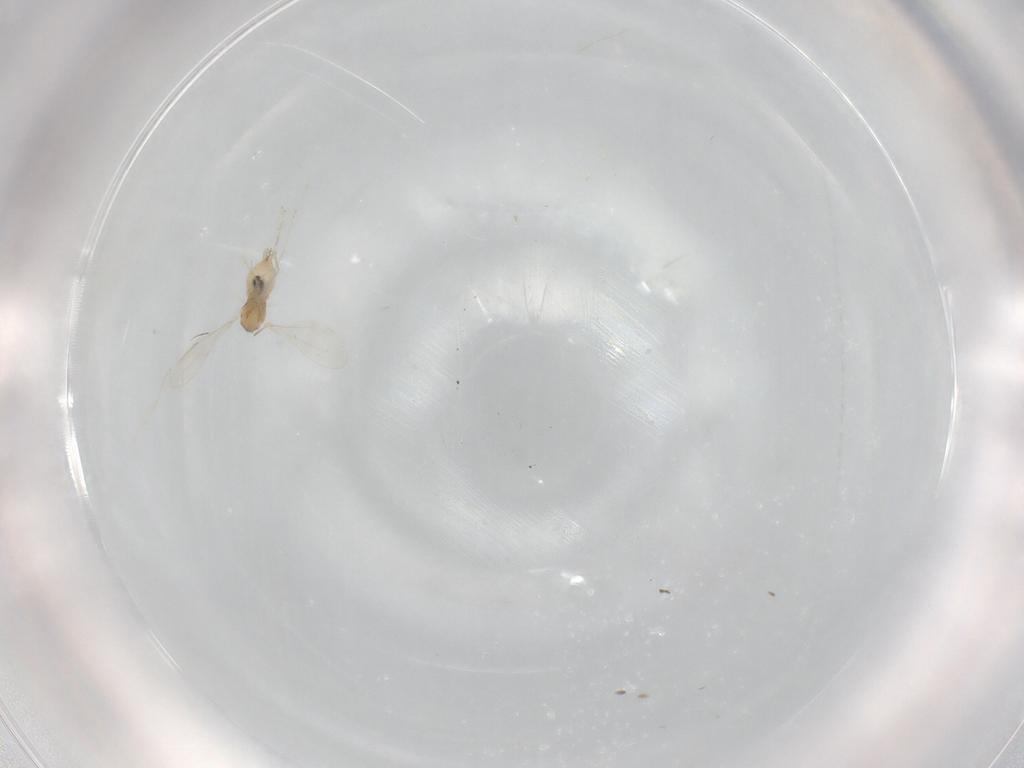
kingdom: Animalia
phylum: Arthropoda
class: Insecta
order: Diptera
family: Cecidomyiidae
